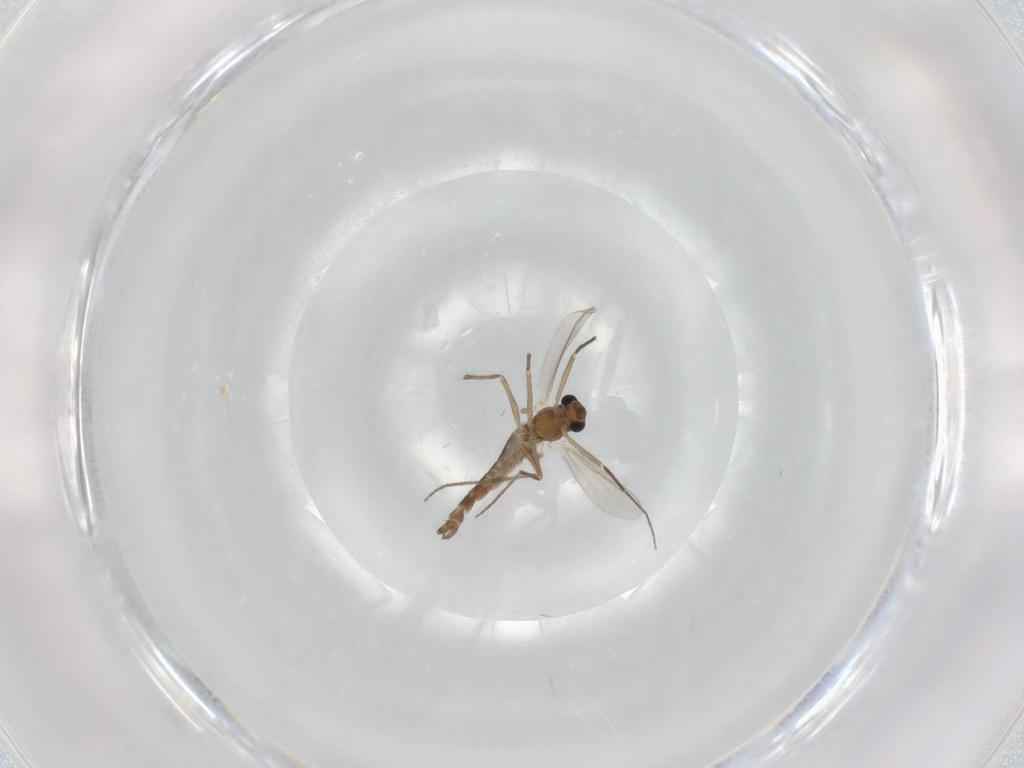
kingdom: Animalia
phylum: Arthropoda
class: Insecta
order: Diptera
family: Chironomidae
